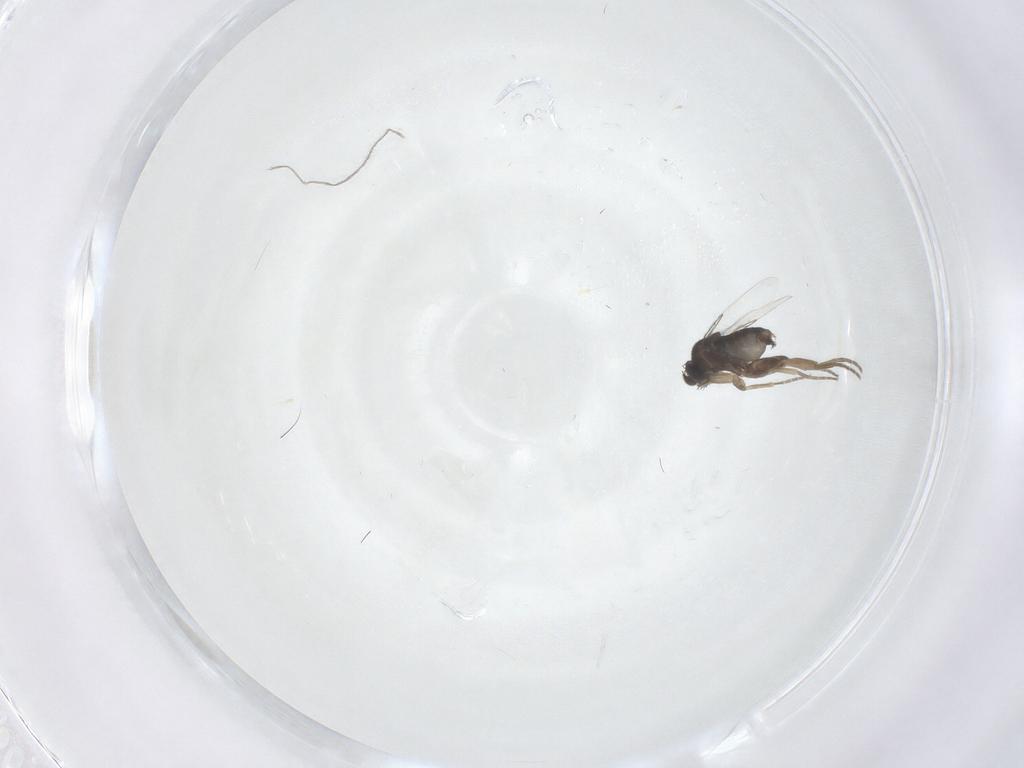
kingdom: Animalia
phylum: Arthropoda
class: Insecta
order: Diptera
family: Phoridae
